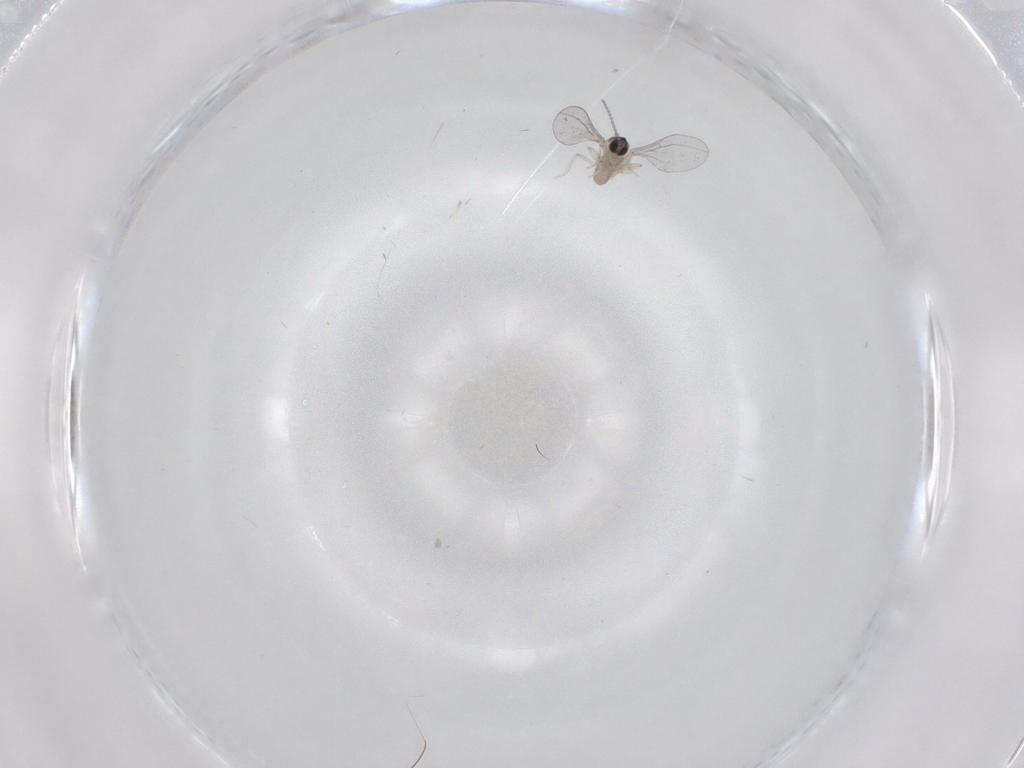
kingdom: Animalia
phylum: Arthropoda
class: Insecta
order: Diptera
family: Cecidomyiidae
